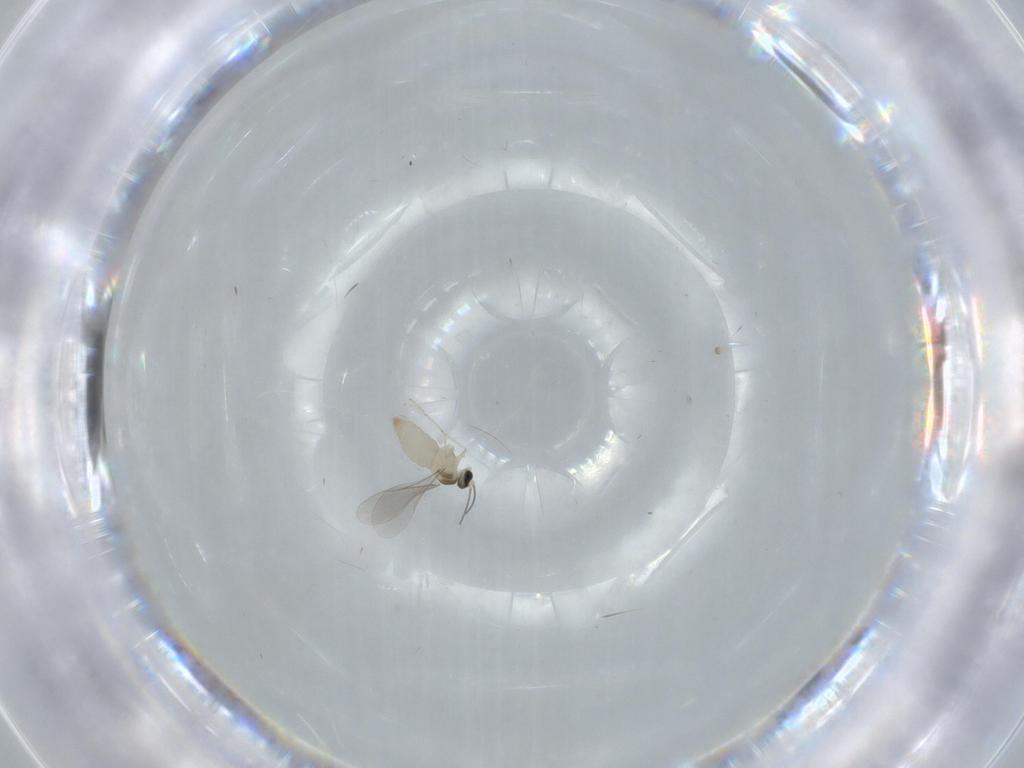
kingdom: Animalia
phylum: Arthropoda
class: Insecta
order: Diptera
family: Cecidomyiidae
